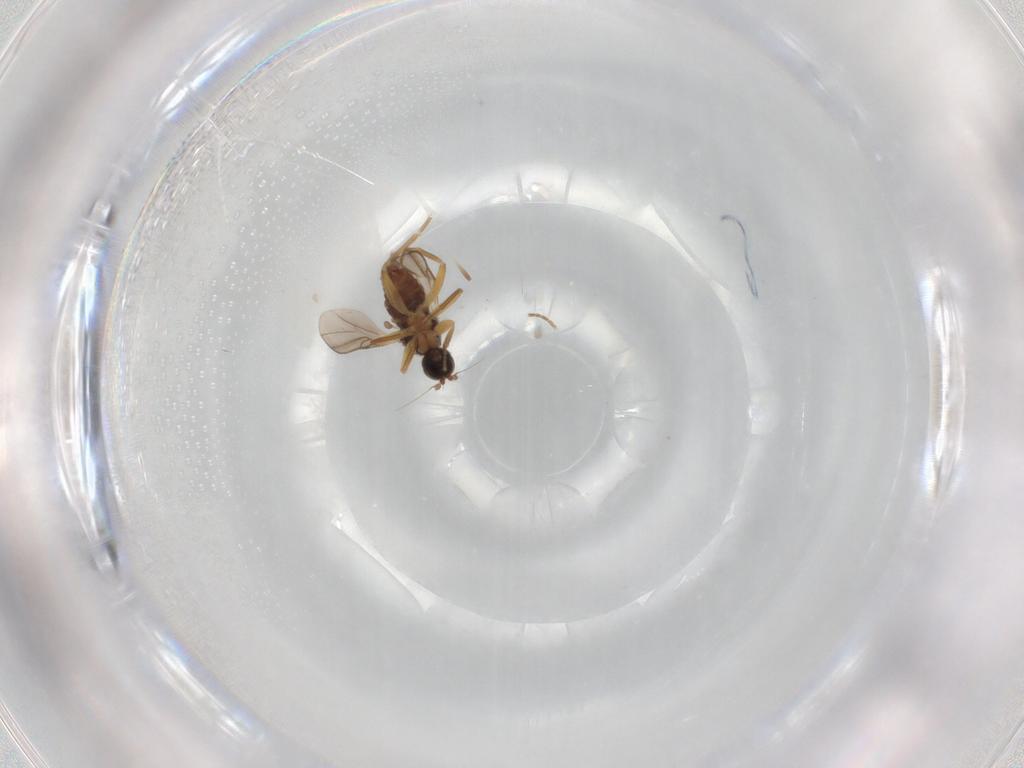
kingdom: Animalia
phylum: Arthropoda
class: Insecta
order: Diptera
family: Hybotidae
